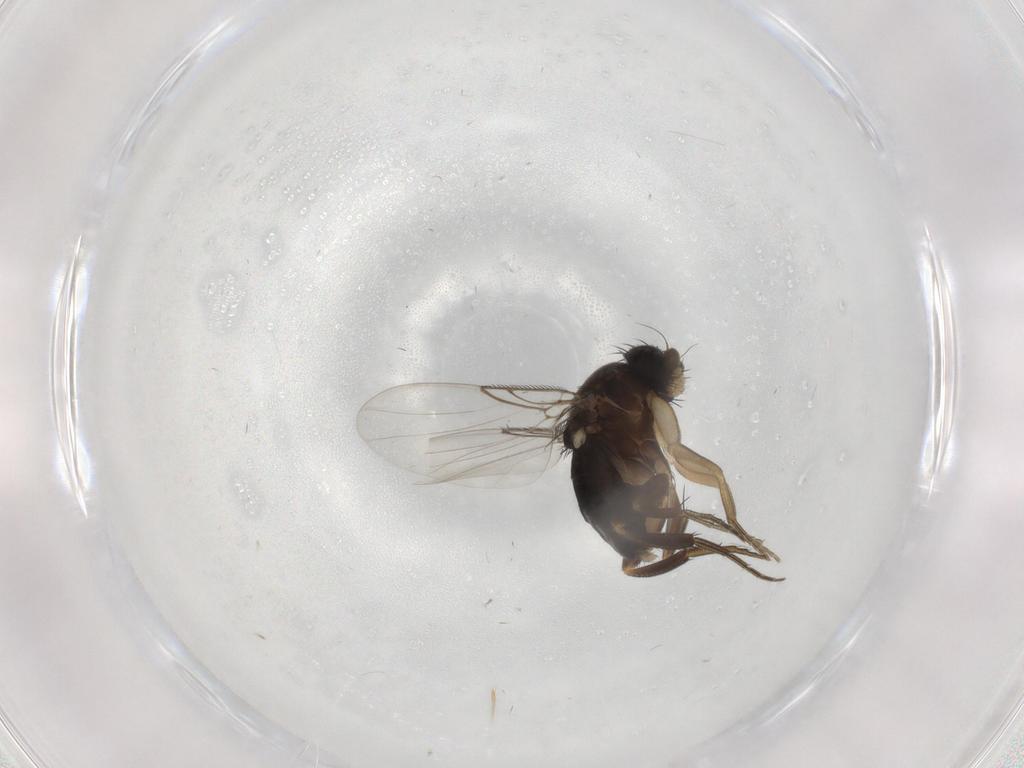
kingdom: Animalia
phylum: Arthropoda
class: Insecta
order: Diptera
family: Phoridae
